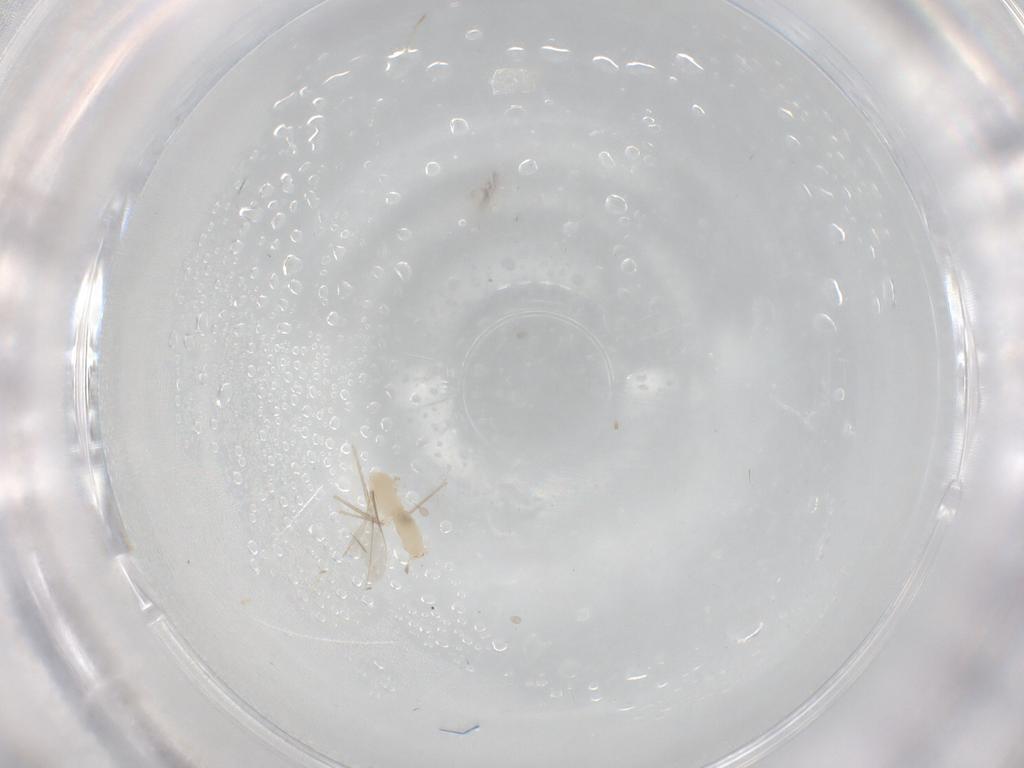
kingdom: Animalia
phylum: Arthropoda
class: Insecta
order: Diptera
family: Cecidomyiidae
